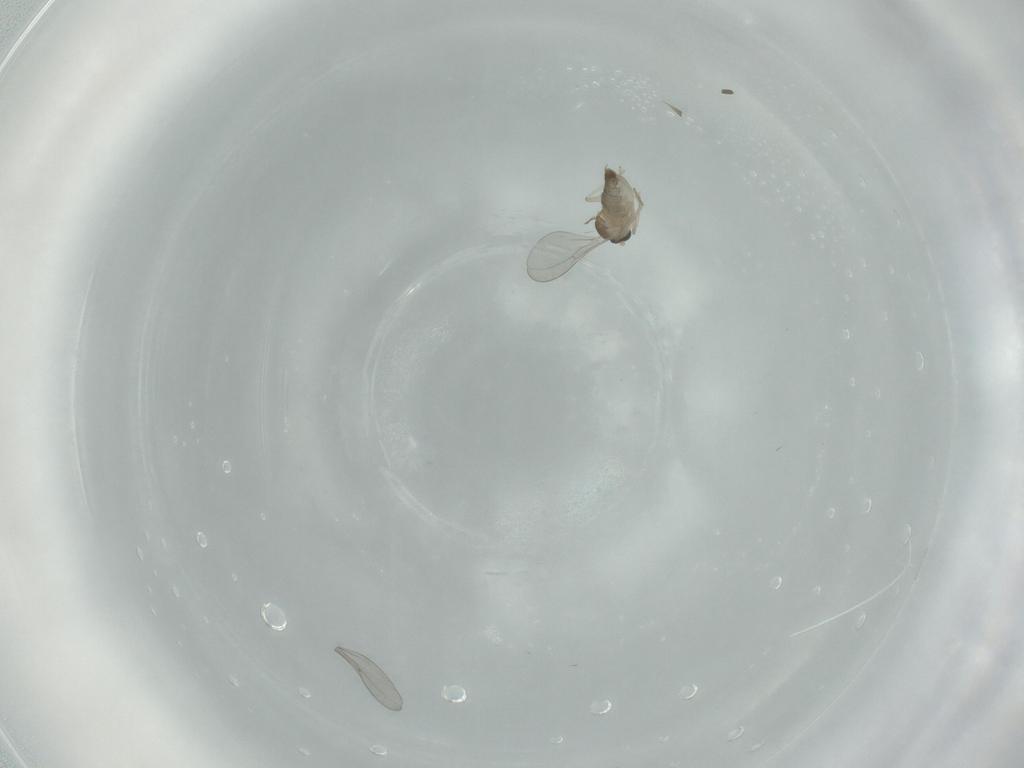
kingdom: Animalia
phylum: Arthropoda
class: Insecta
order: Diptera
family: Cecidomyiidae
